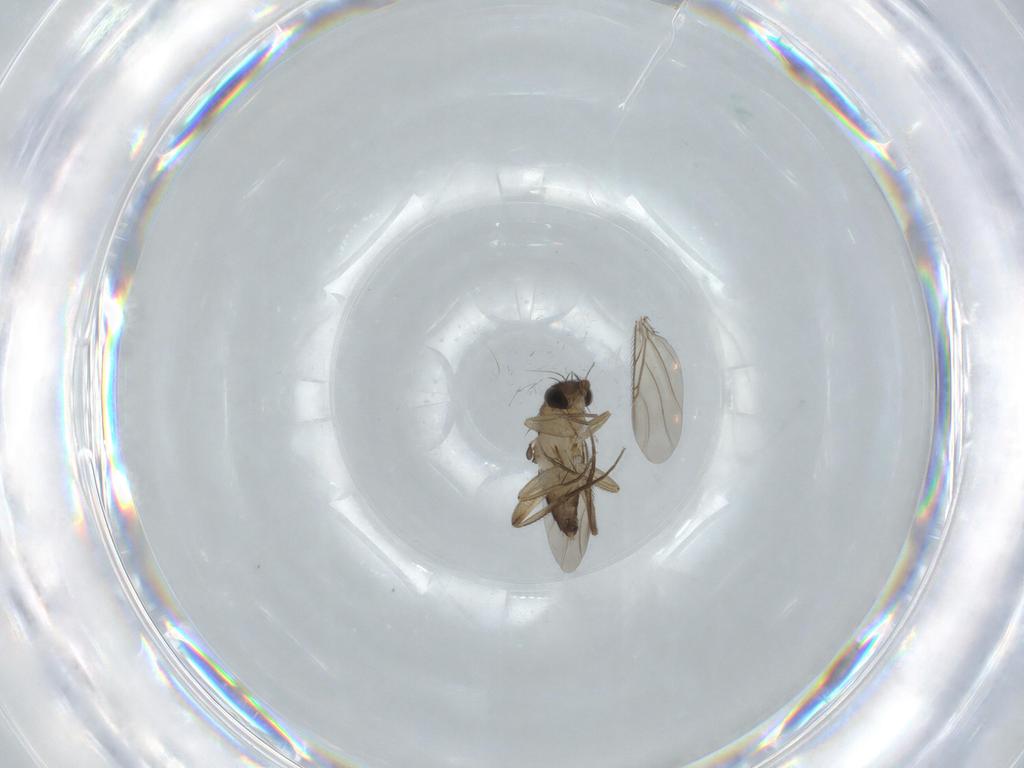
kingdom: Animalia
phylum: Arthropoda
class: Insecta
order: Diptera
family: Phoridae
